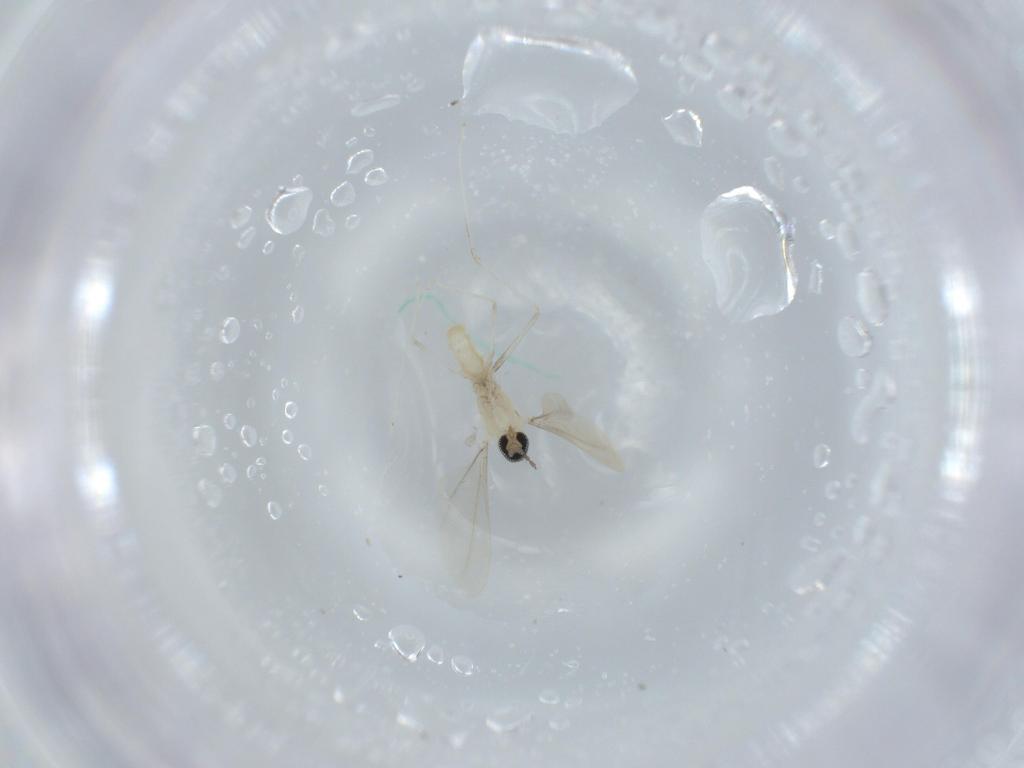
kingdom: Animalia
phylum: Arthropoda
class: Insecta
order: Diptera
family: Cecidomyiidae
